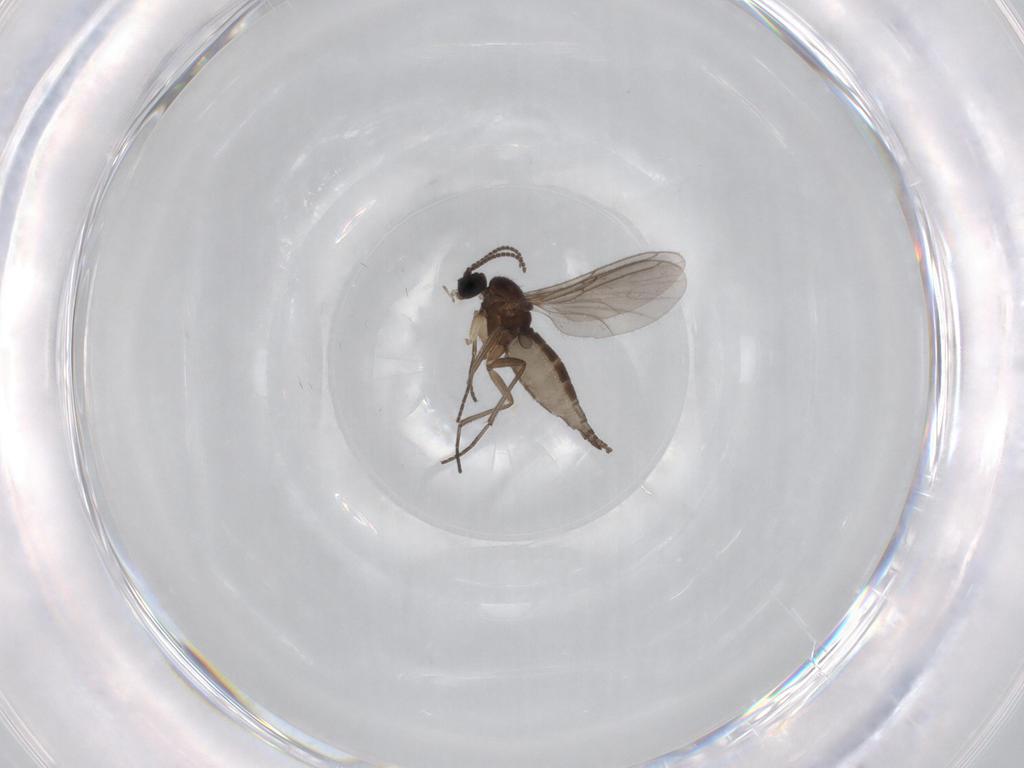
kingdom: Animalia
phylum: Arthropoda
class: Insecta
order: Diptera
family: Sciaridae
